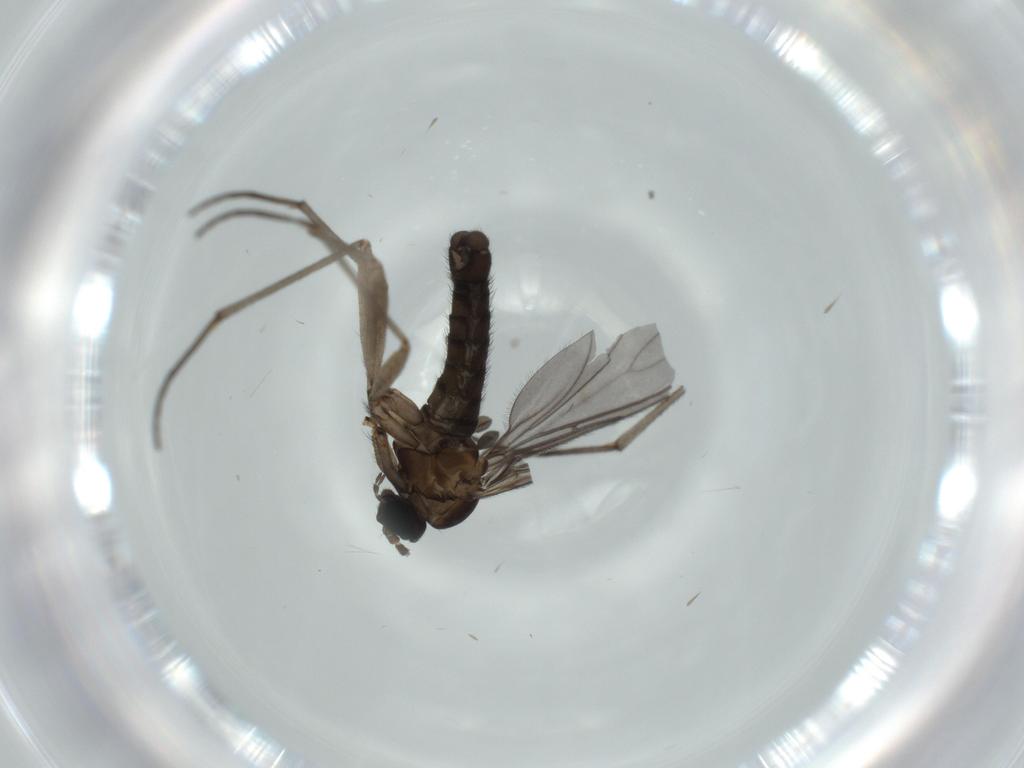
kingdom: Animalia
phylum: Arthropoda
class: Insecta
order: Diptera
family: Sciaridae
